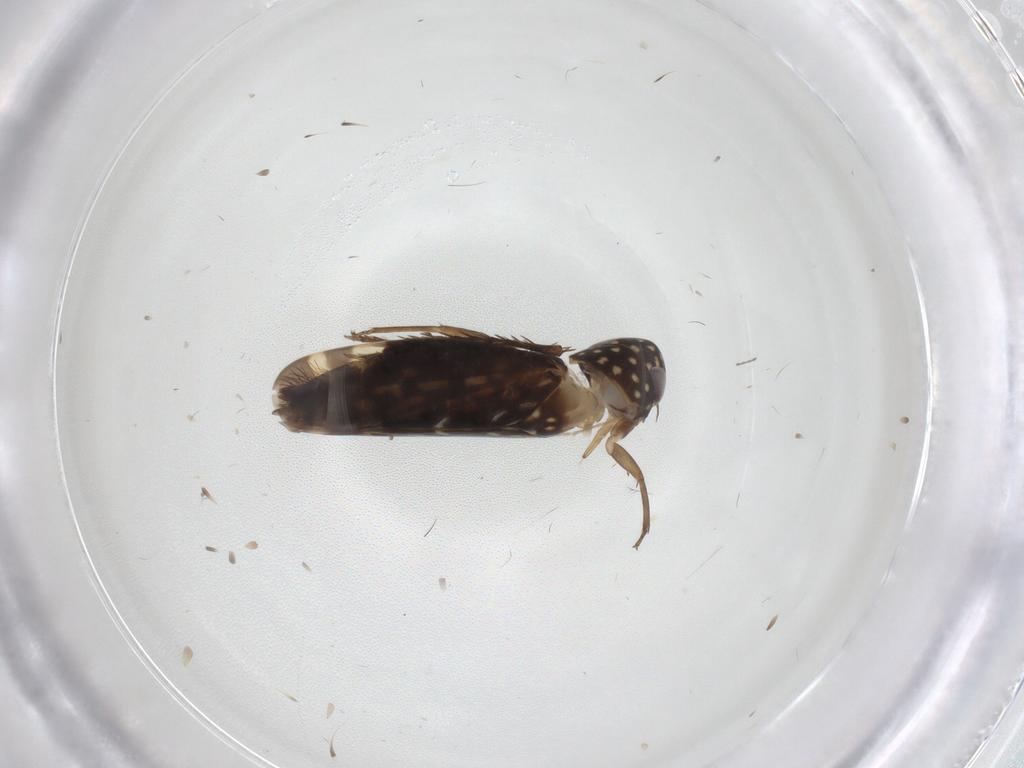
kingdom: Animalia
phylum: Arthropoda
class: Insecta
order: Hemiptera
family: Cicadellidae
